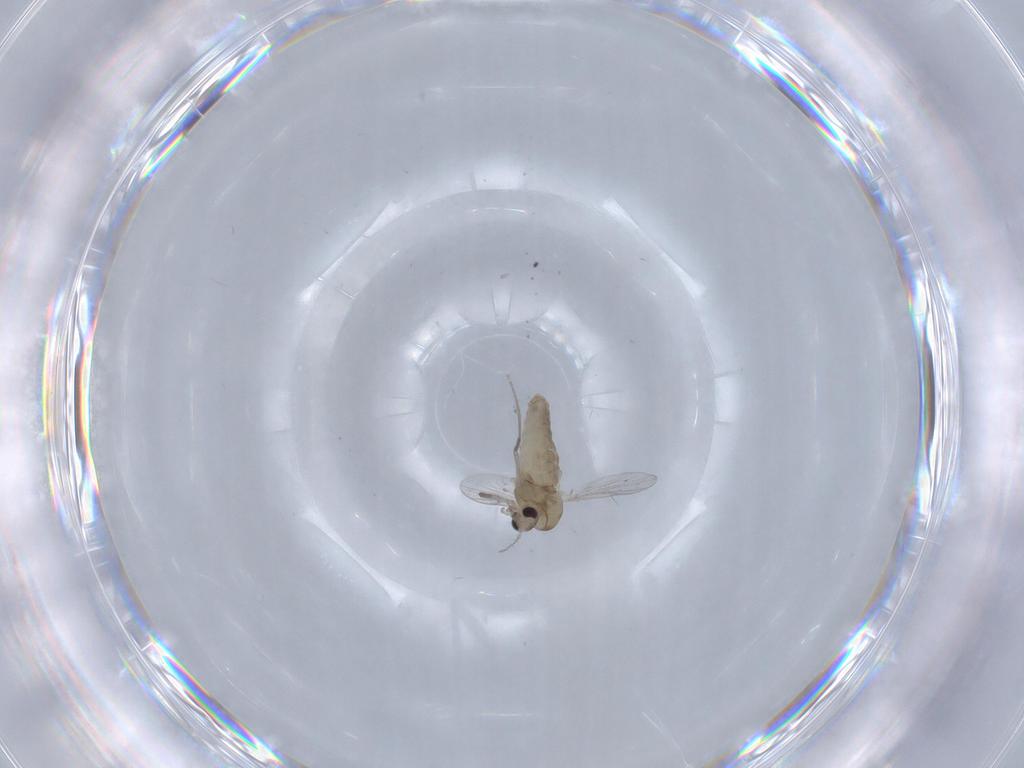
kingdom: Animalia
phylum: Arthropoda
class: Insecta
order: Diptera
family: Chironomidae
